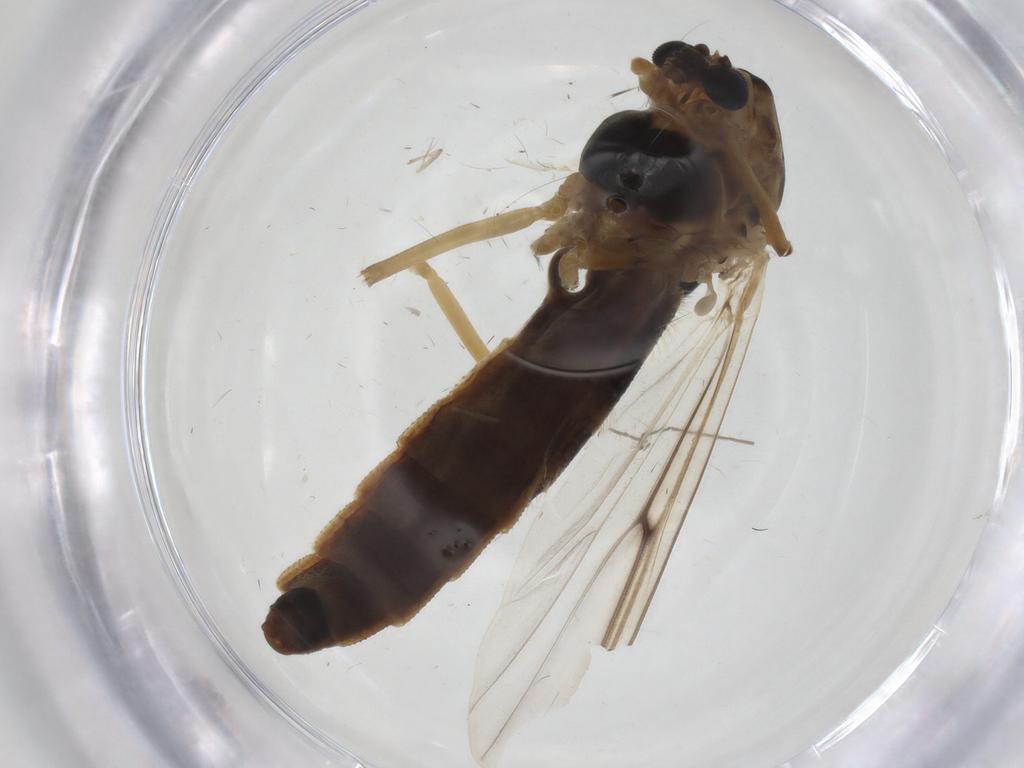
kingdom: Animalia
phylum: Arthropoda
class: Insecta
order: Diptera
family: Chironomidae
